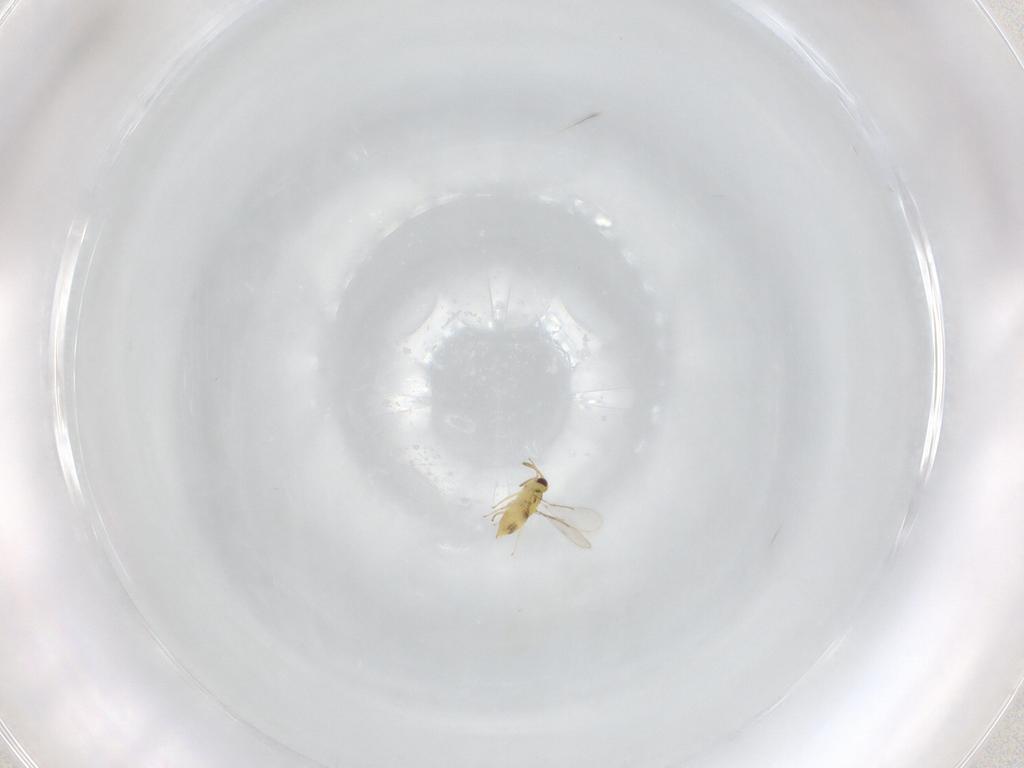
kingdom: Animalia
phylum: Arthropoda
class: Insecta
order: Hymenoptera
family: Aphelinidae
